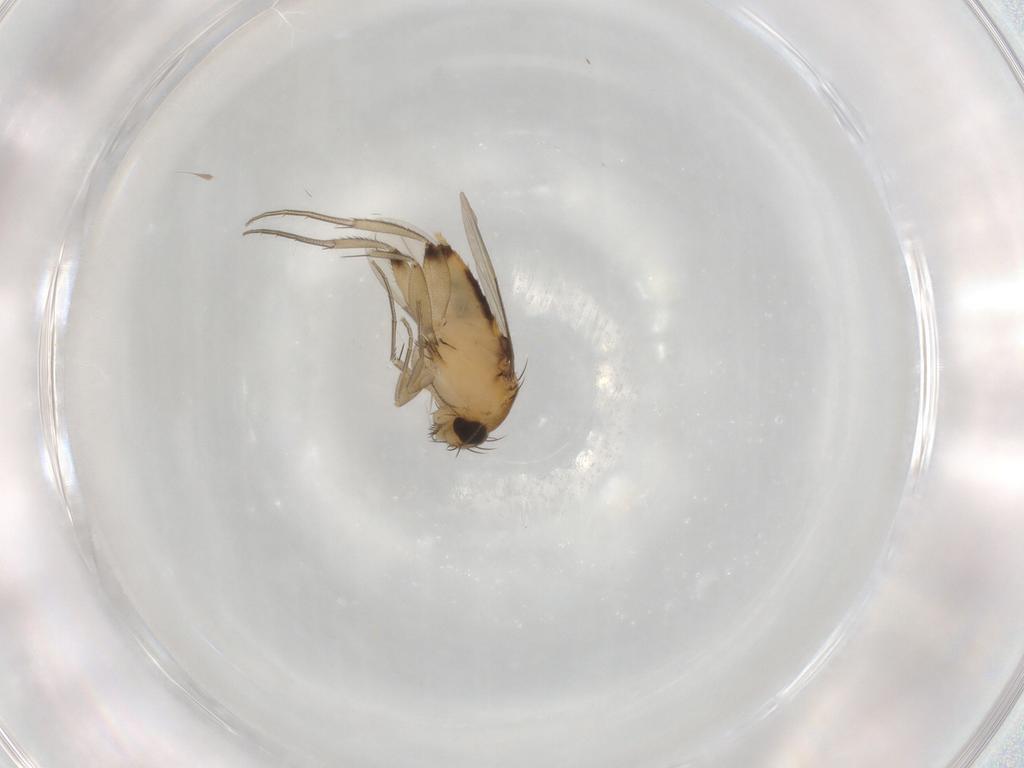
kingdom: Animalia
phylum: Arthropoda
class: Insecta
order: Diptera
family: Phoridae
